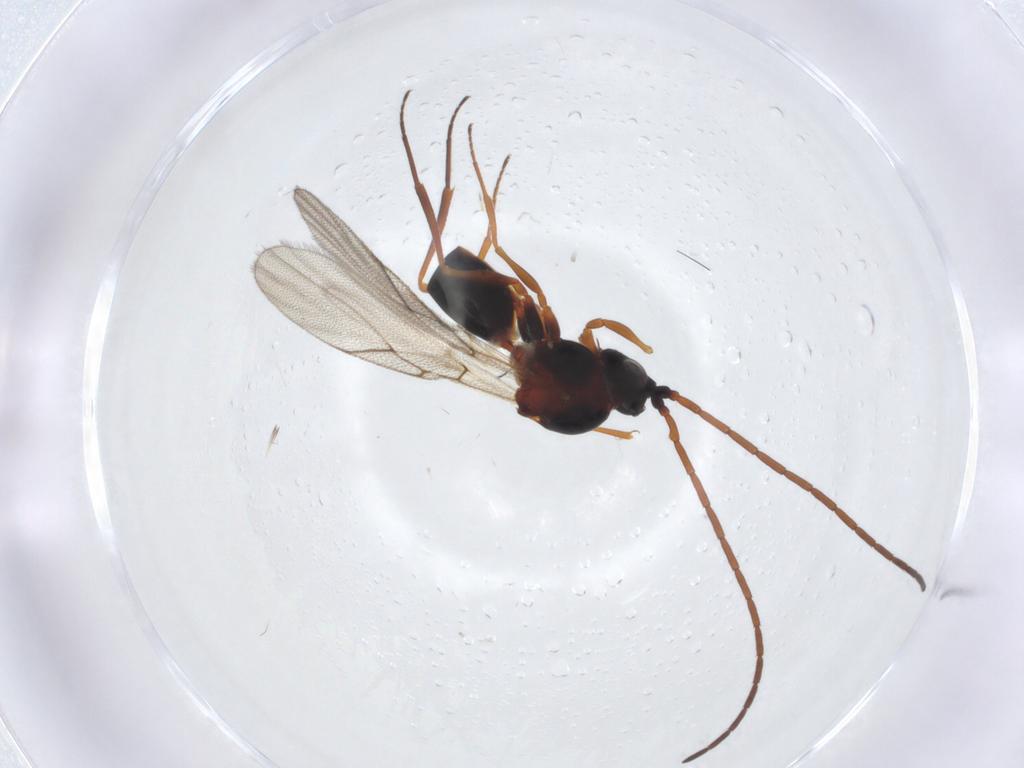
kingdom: Animalia
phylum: Arthropoda
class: Insecta
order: Hymenoptera
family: Figitidae
